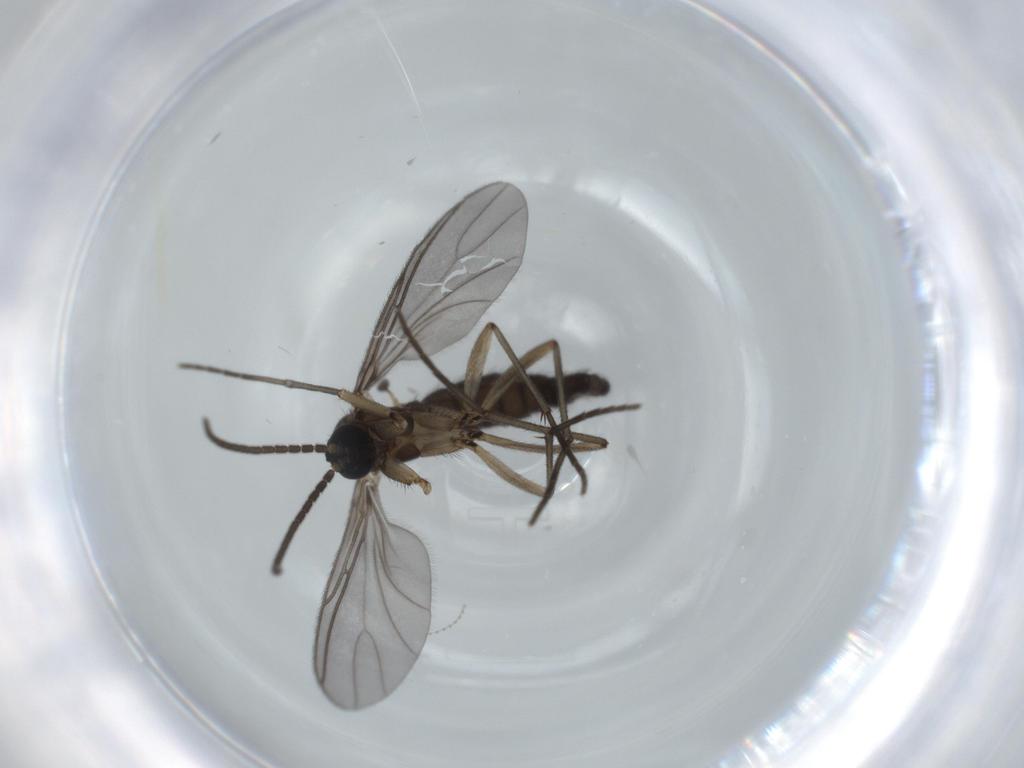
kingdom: Animalia
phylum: Arthropoda
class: Insecta
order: Diptera
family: Sciaridae
